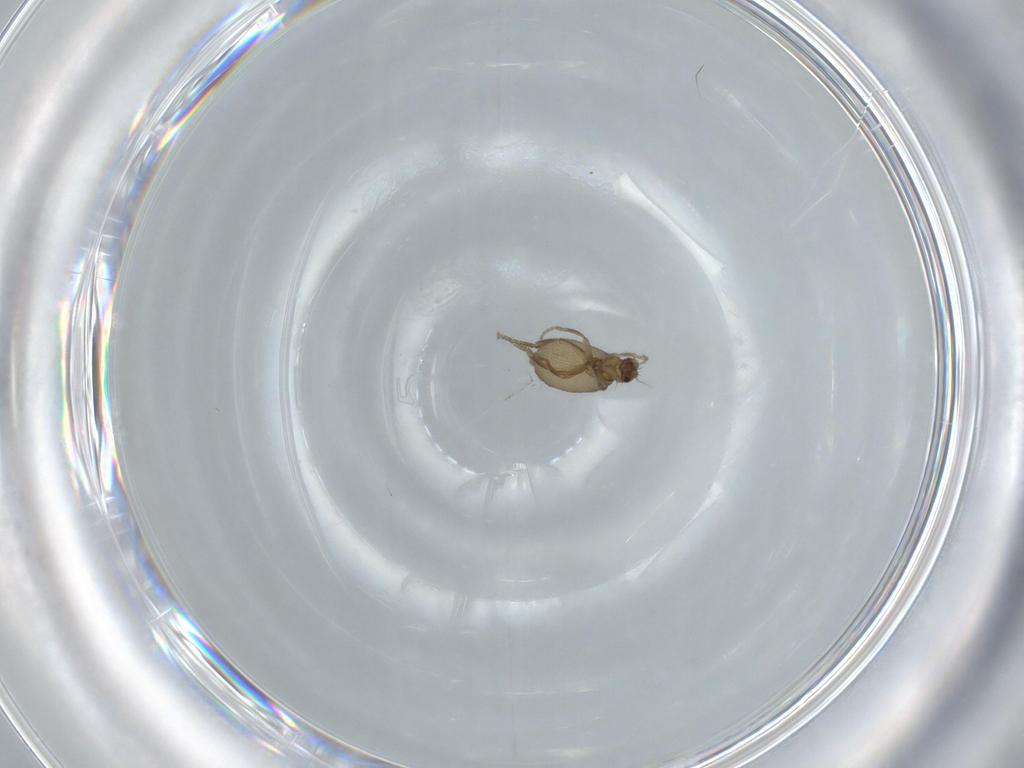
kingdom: Animalia
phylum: Arthropoda
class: Insecta
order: Diptera
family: Phoridae
